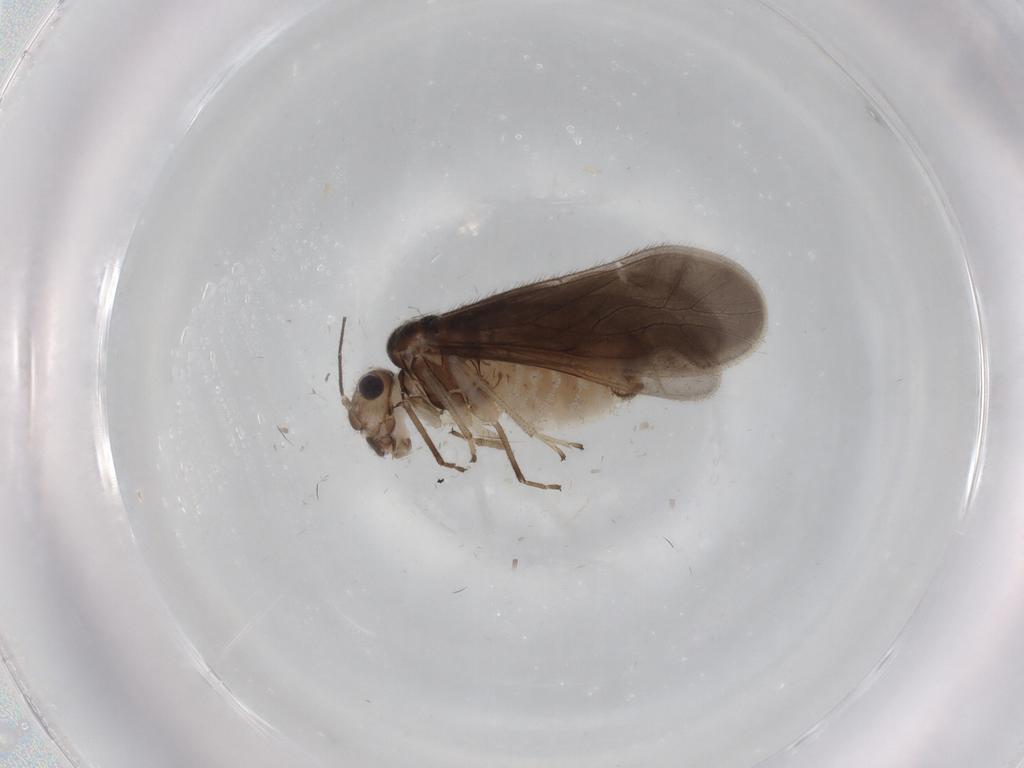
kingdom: Animalia
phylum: Arthropoda
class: Insecta
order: Psocodea
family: Caeciliusidae
